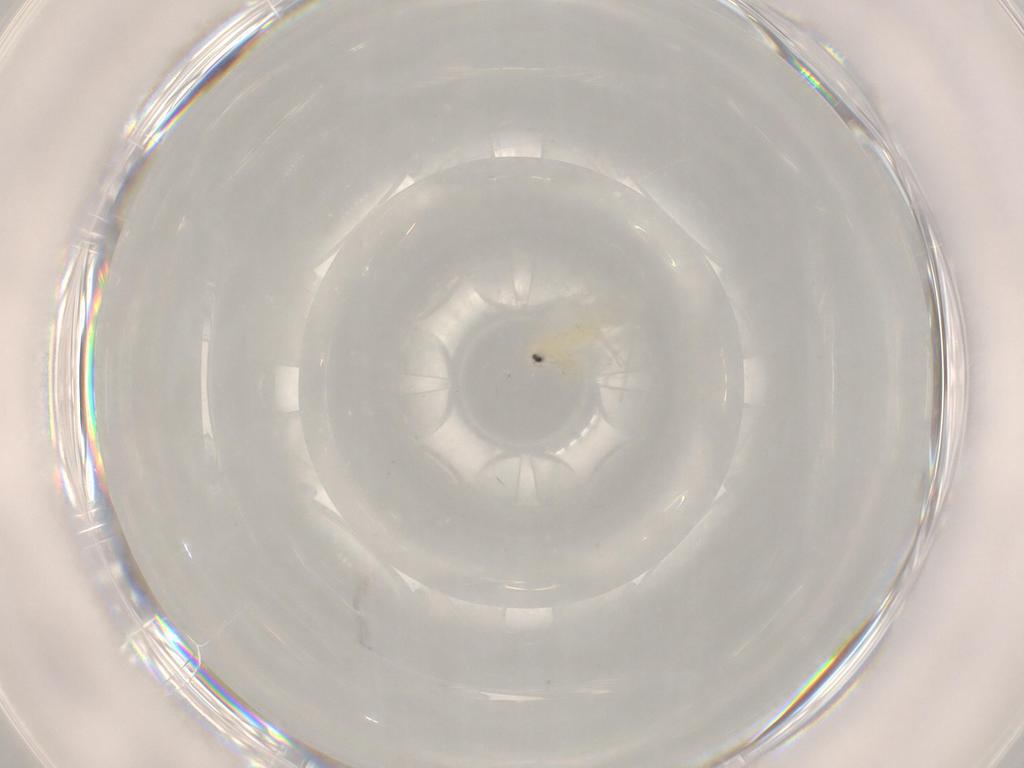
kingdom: Animalia
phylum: Arthropoda
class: Insecta
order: Hemiptera
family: Aleyrodidae
